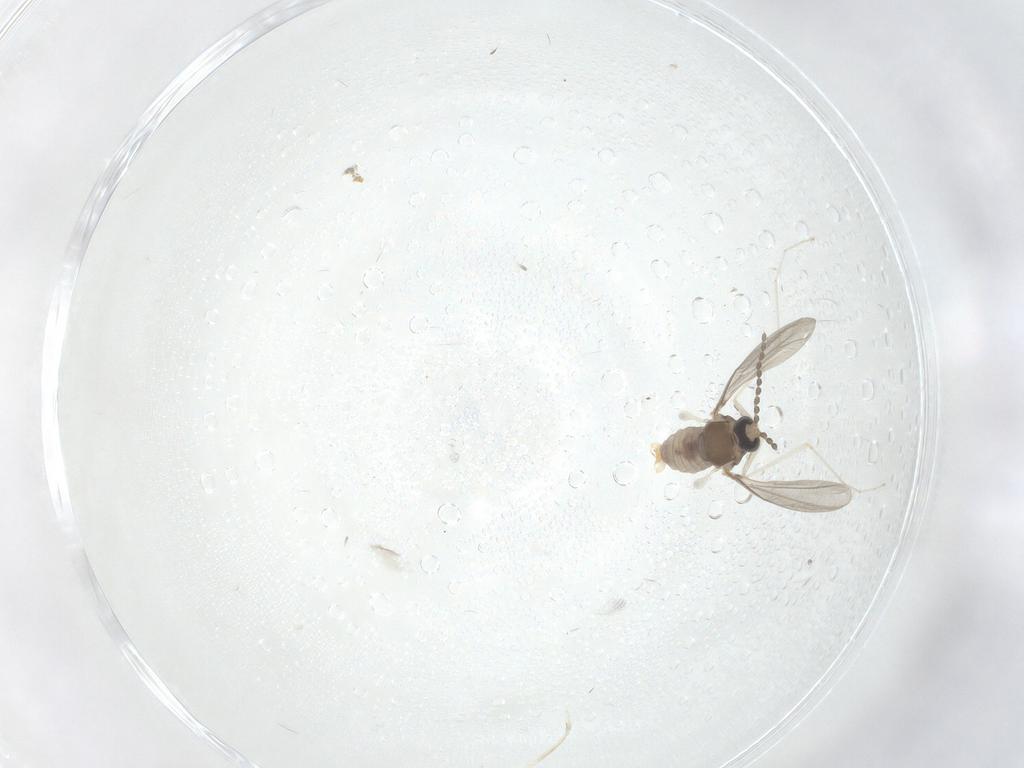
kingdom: Animalia
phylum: Arthropoda
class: Insecta
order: Diptera
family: Cecidomyiidae
